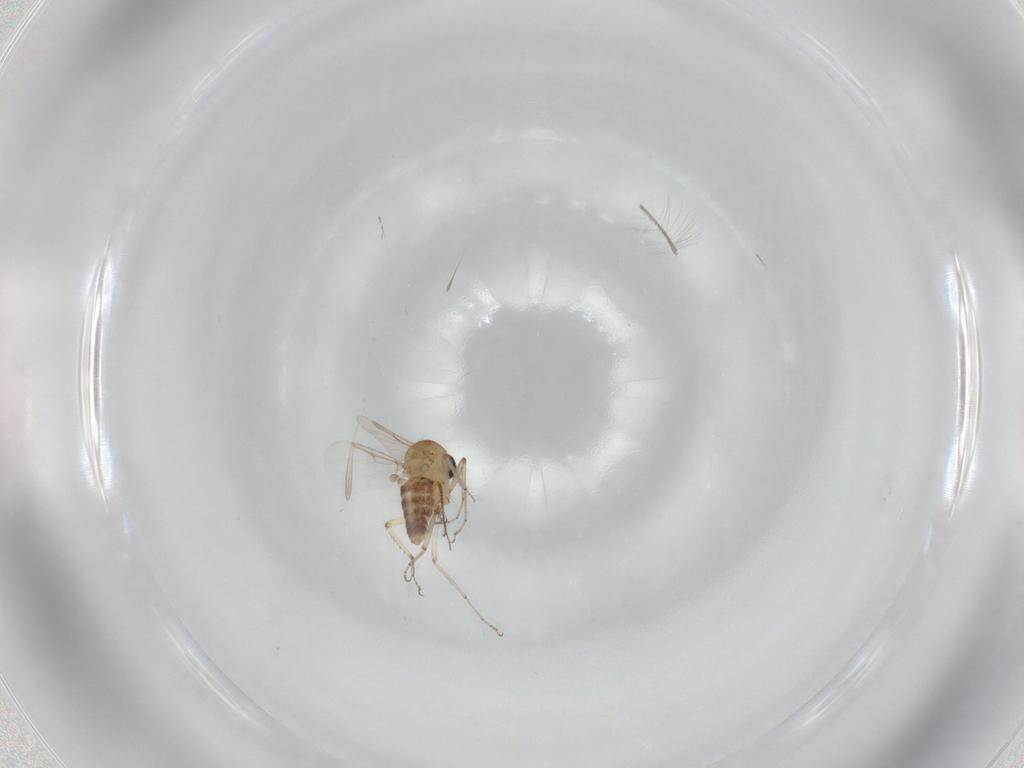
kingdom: Animalia
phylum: Arthropoda
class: Insecta
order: Diptera
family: Ceratopogonidae
